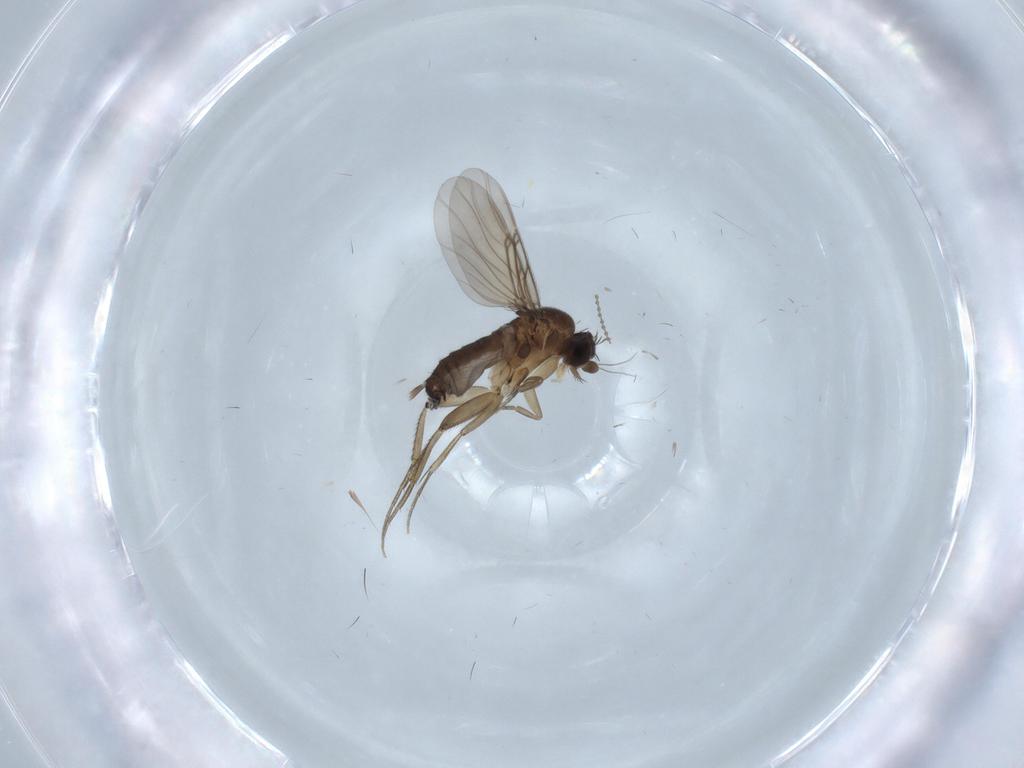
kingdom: Animalia
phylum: Arthropoda
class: Insecta
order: Diptera
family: Phoridae
